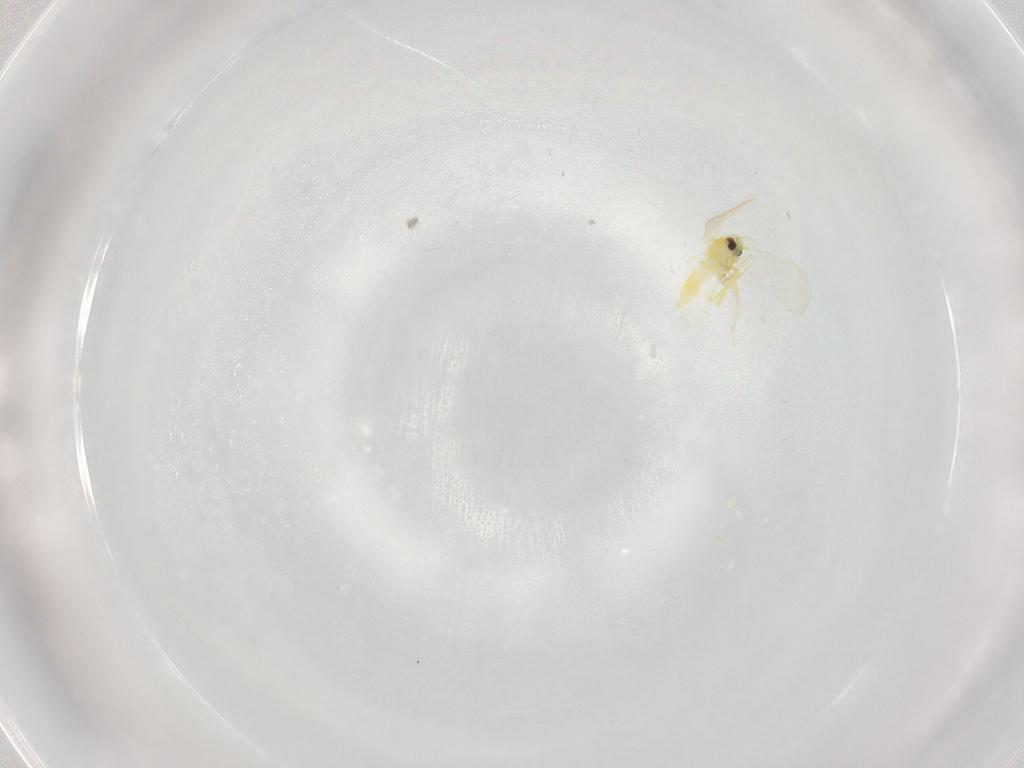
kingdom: Animalia
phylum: Arthropoda
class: Insecta
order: Hemiptera
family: Aleyrodidae
